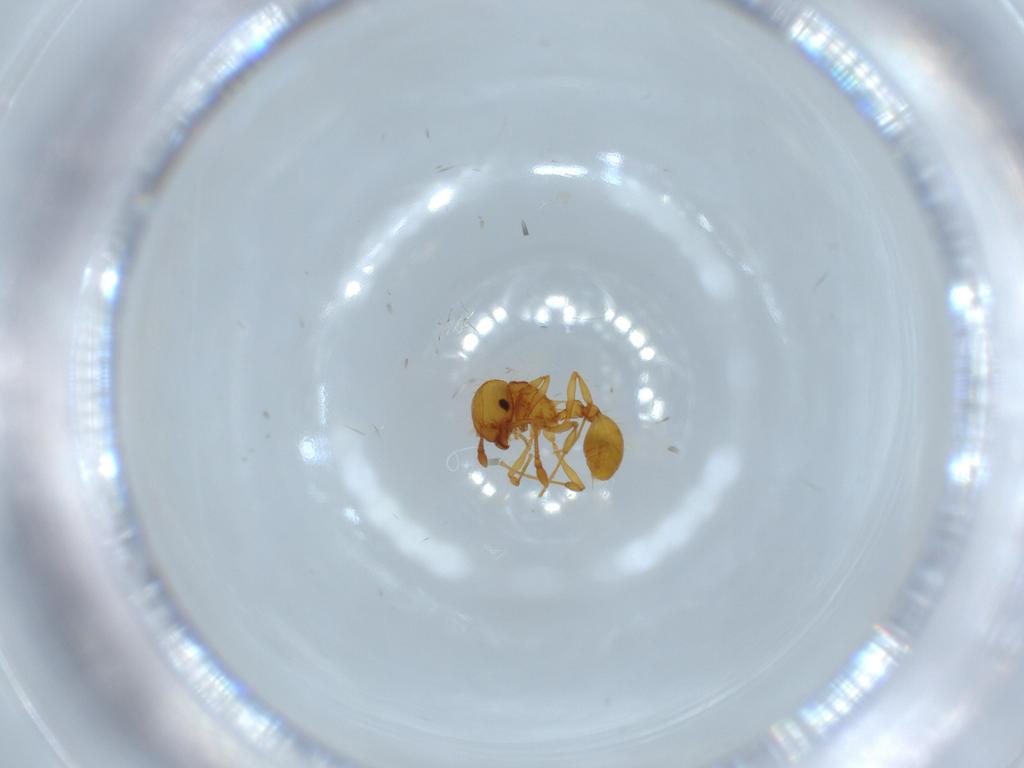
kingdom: Animalia
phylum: Arthropoda
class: Insecta
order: Hymenoptera
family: Formicidae
